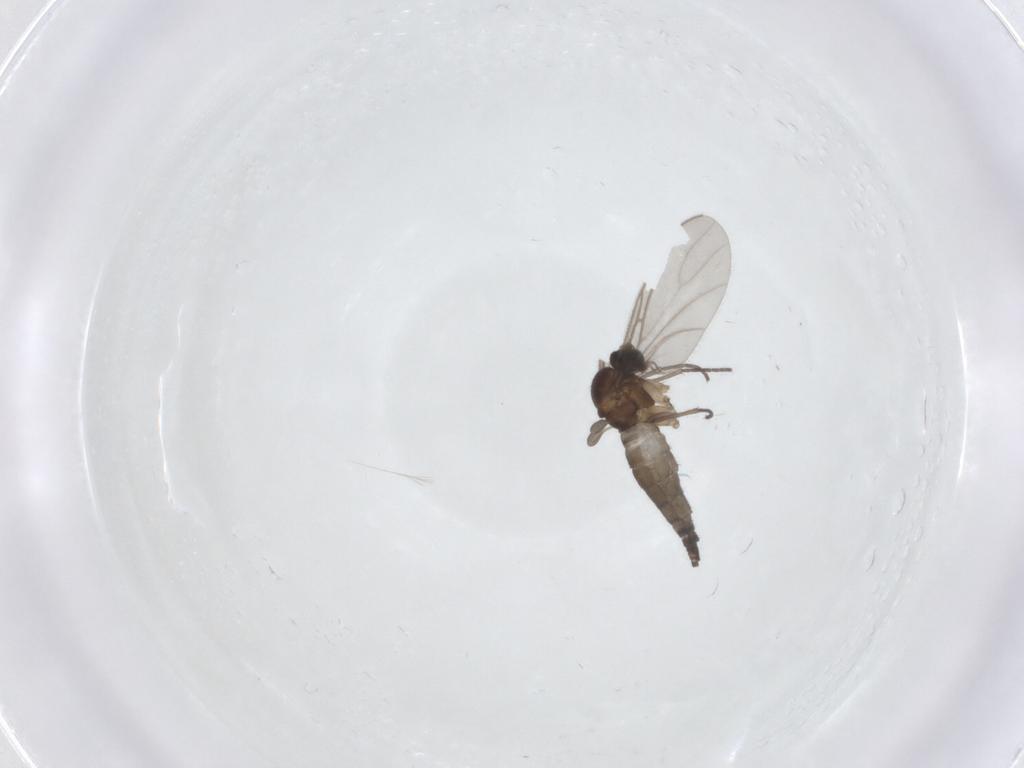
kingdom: Animalia
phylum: Arthropoda
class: Insecta
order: Diptera
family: Sciaridae
